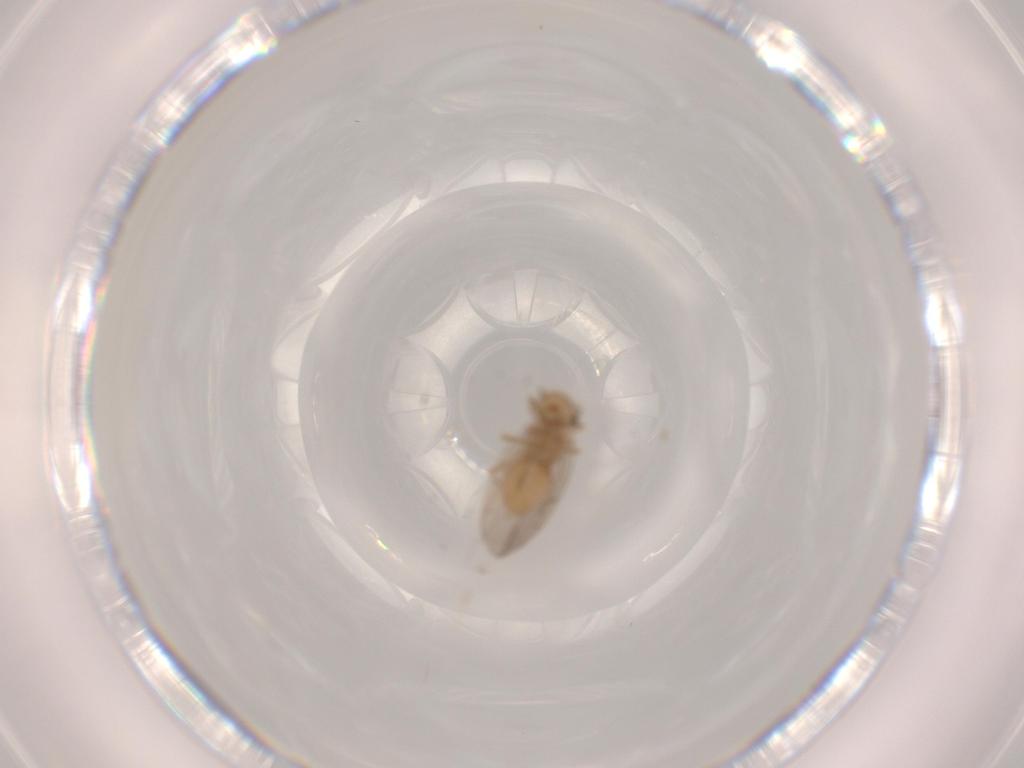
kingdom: Animalia
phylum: Arthropoda
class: Insecta
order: Psocodea
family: Ectopsocidae
